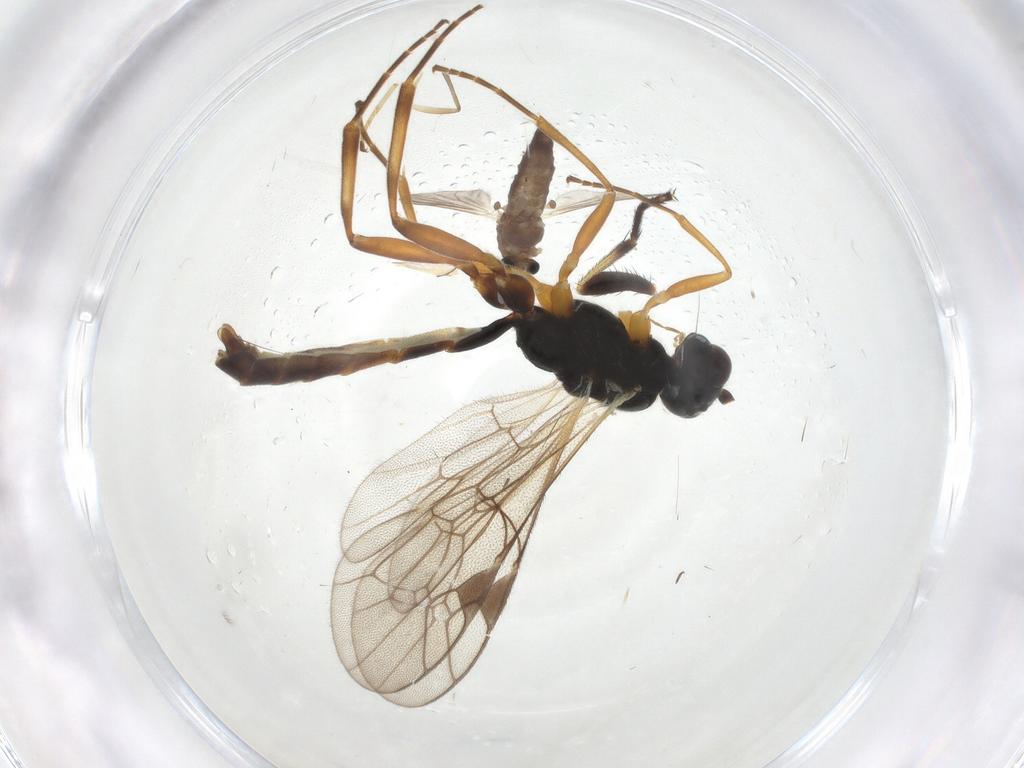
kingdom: Animalia
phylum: Arthropoda
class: Insecta
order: Hymenoptera
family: Ichneumonidae
